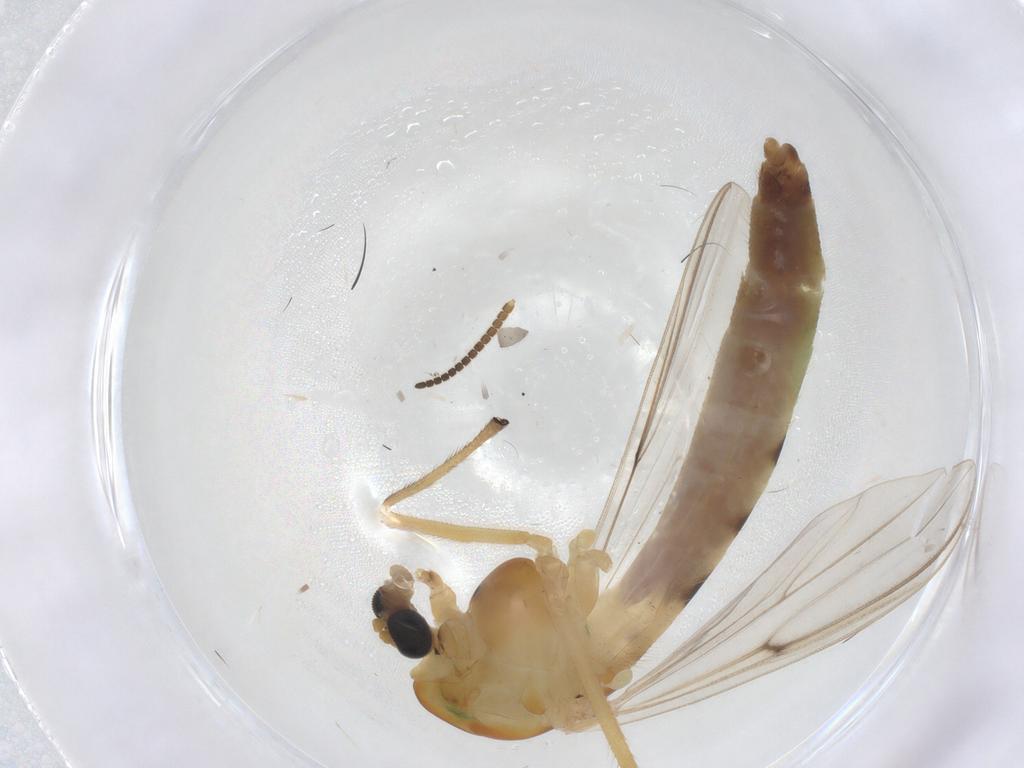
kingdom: Animalia
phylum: Arthropoda
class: Insecta
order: Diptera
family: Chironomidae
